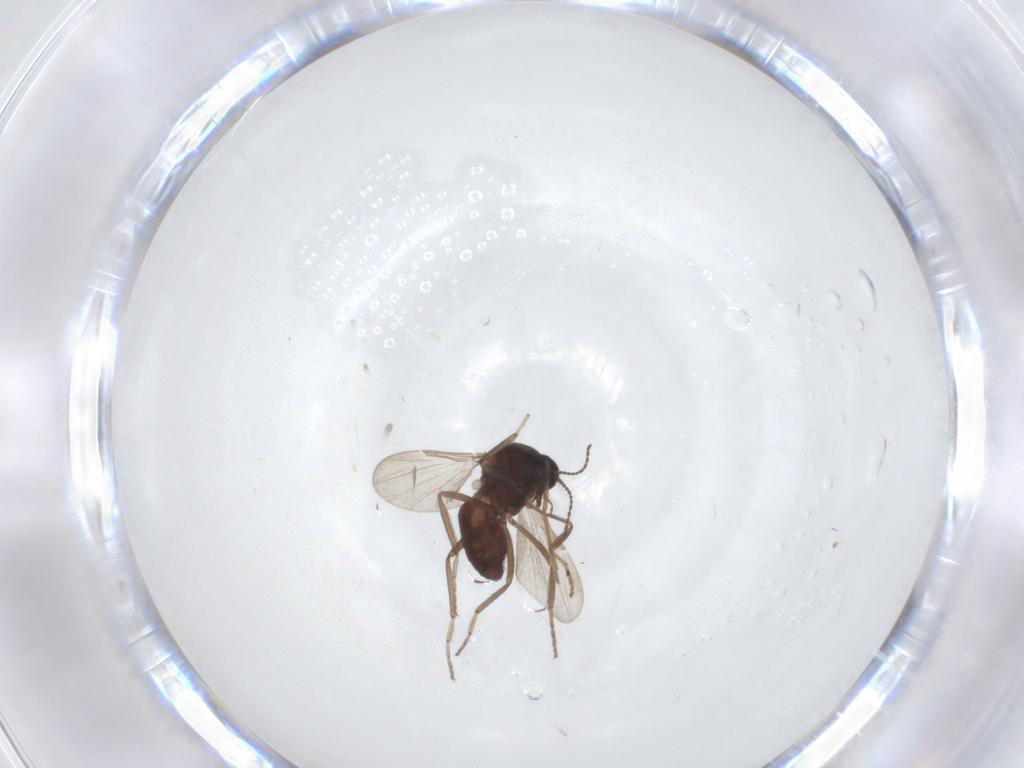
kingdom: Animalia
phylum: Arthropoda
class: Insecta
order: Diptera
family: Ceratopogonidae
